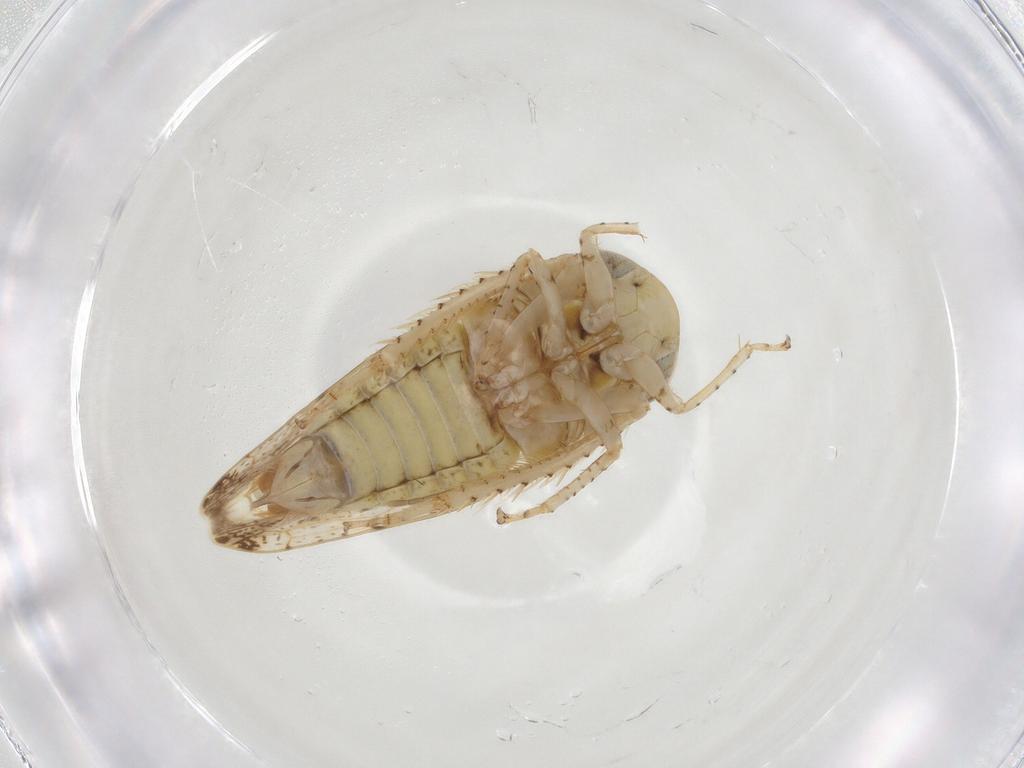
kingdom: Animalia
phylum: Arthropoda
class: Insecta
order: Hemiptera
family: Cicadellidae
